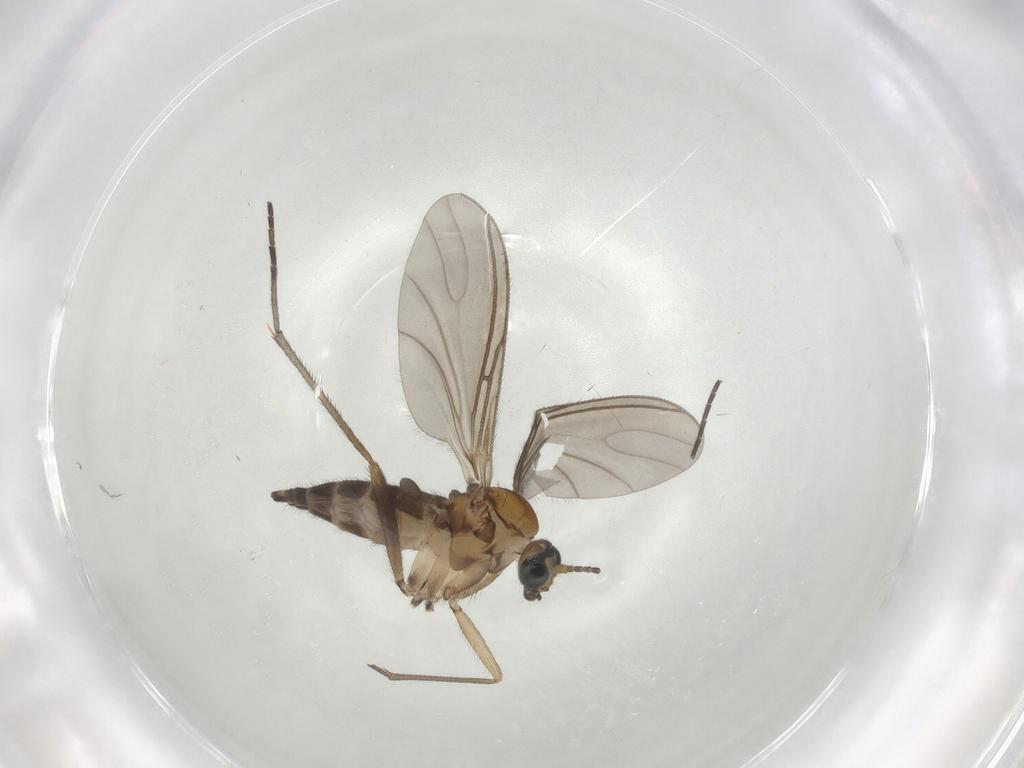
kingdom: Animalia
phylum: Arthropoda
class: Insecta
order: Diptera
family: Sciaridae
